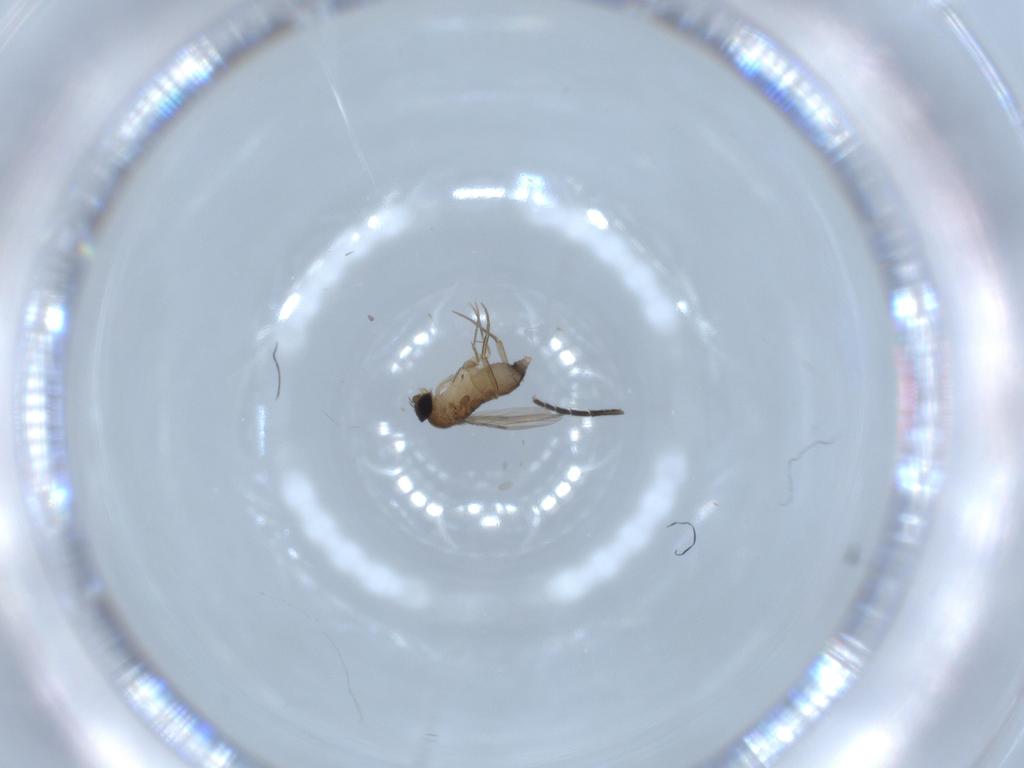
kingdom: Animalia
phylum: Arthropoda
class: Insecta
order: Diptera
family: Phoridae
